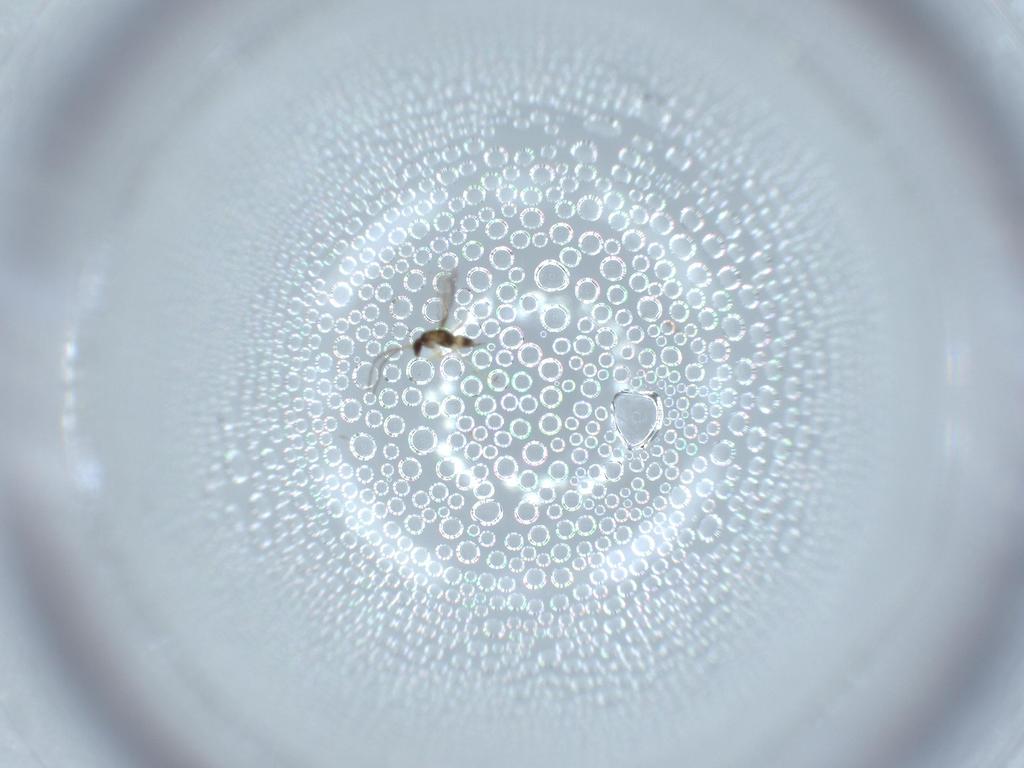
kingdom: Animalia
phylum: Arthropoda
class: Insecta
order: Hymenoptera
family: Mymaridae
